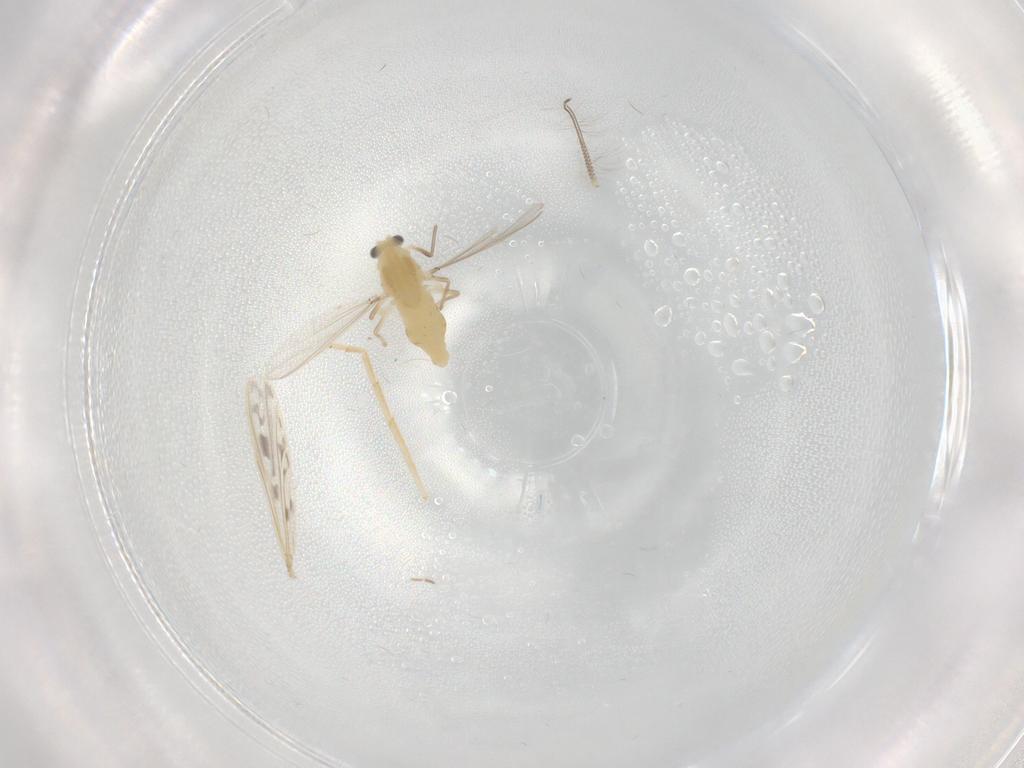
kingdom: Animalia
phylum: Arthropoda
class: Insecta
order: Diptera
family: Chironomidae
